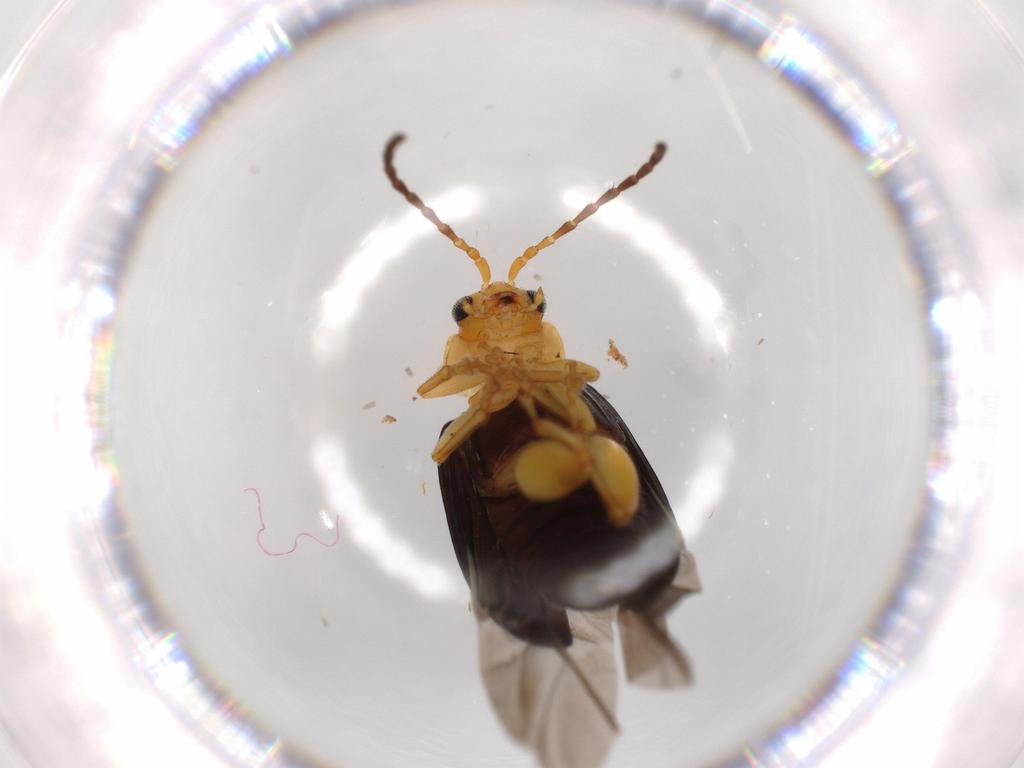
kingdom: Animalia
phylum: Arthropoda
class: Insecta
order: Coleoptera
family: Chrysomelidae
